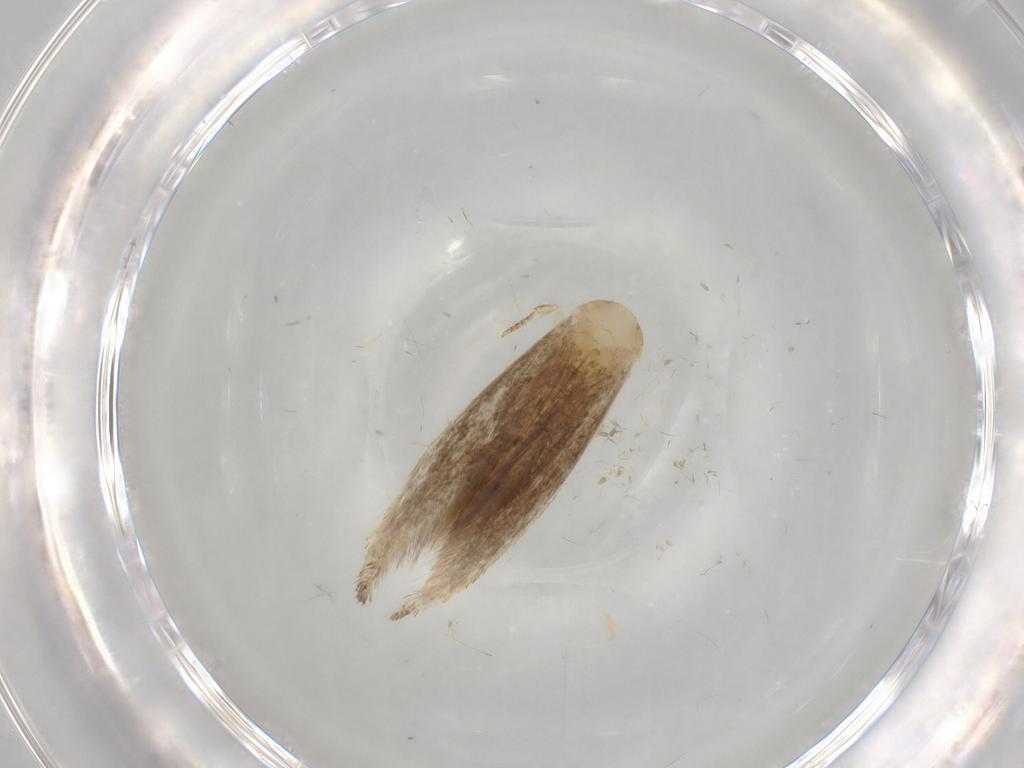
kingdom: Animalia
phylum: Arthropoda
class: Insecta
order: Lepidoptera
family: Tineidae
